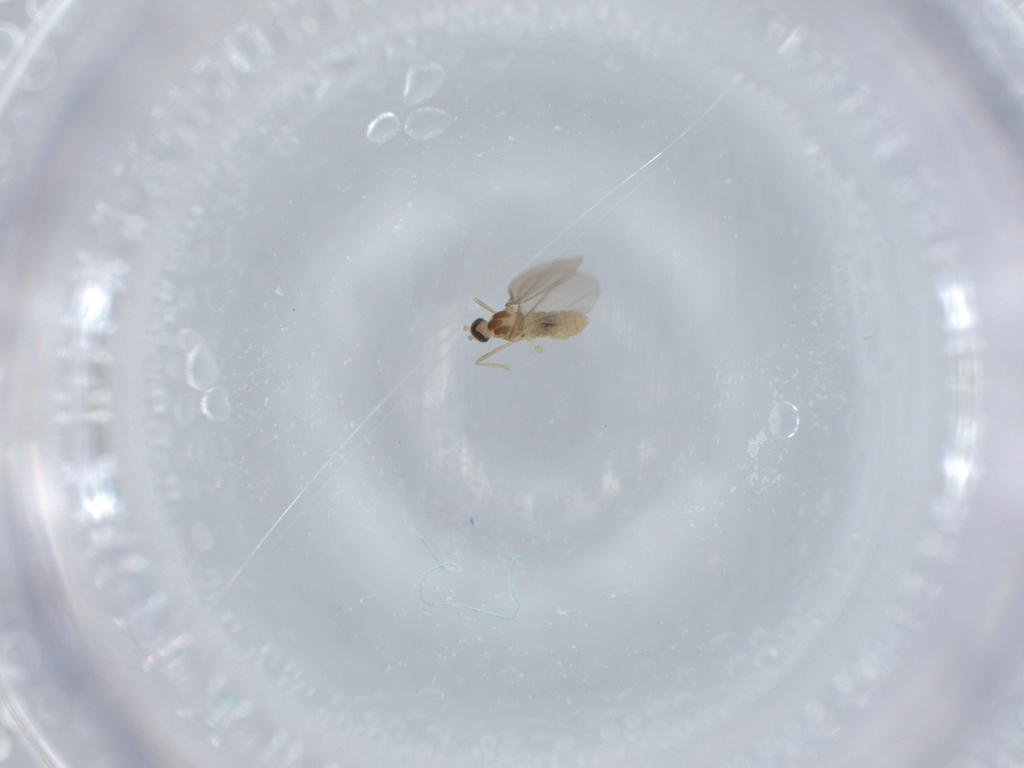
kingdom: Animalia
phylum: Arthropoda
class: Insecta
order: Diptera
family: Cecidomyiidae
